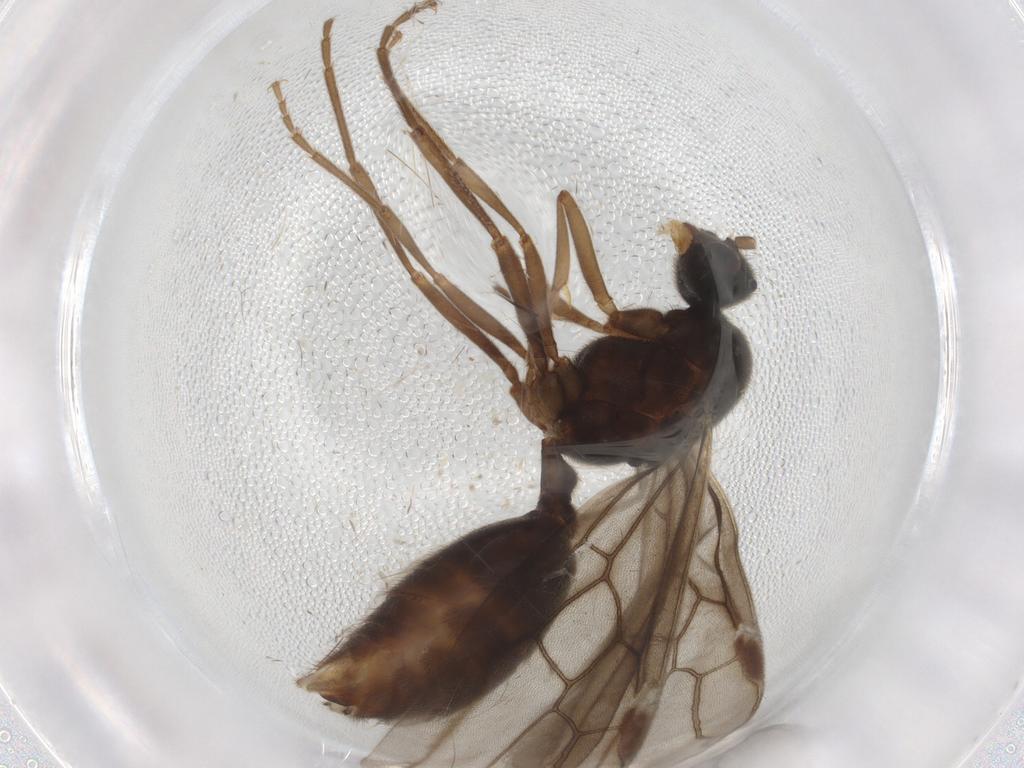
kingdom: Animalia
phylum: Arthropoda
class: Insecta
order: Hymenoptera
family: Formicidae
